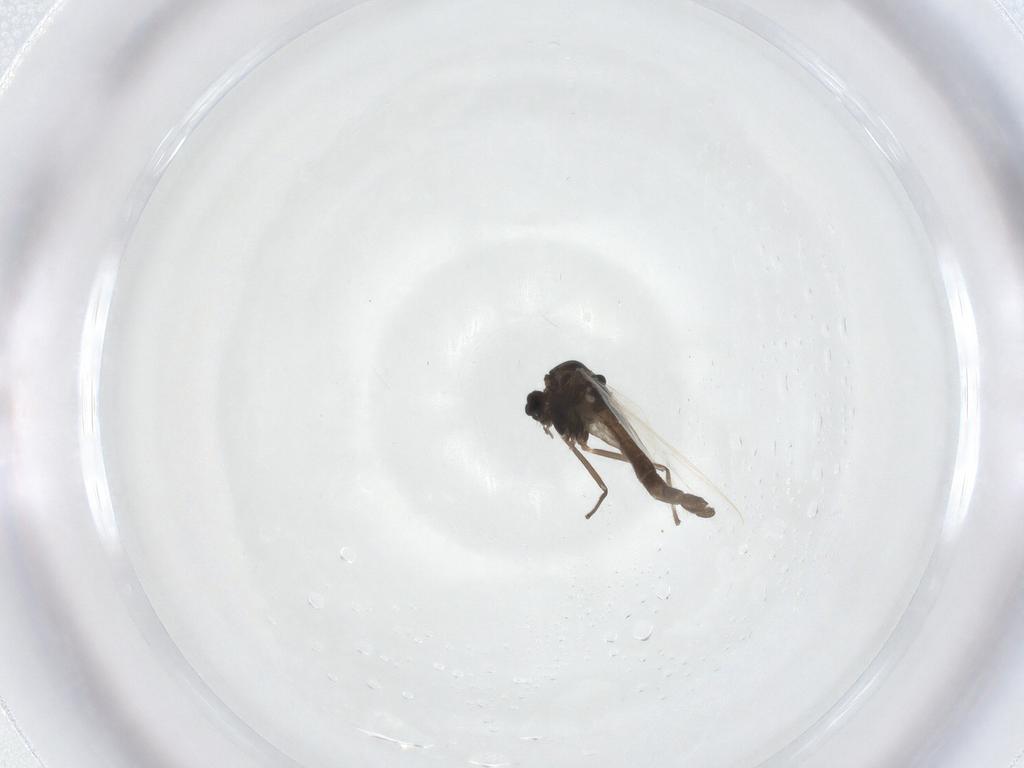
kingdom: Animalia
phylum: Arthropoda
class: Insecta
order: Diptera
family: Chironomidae
